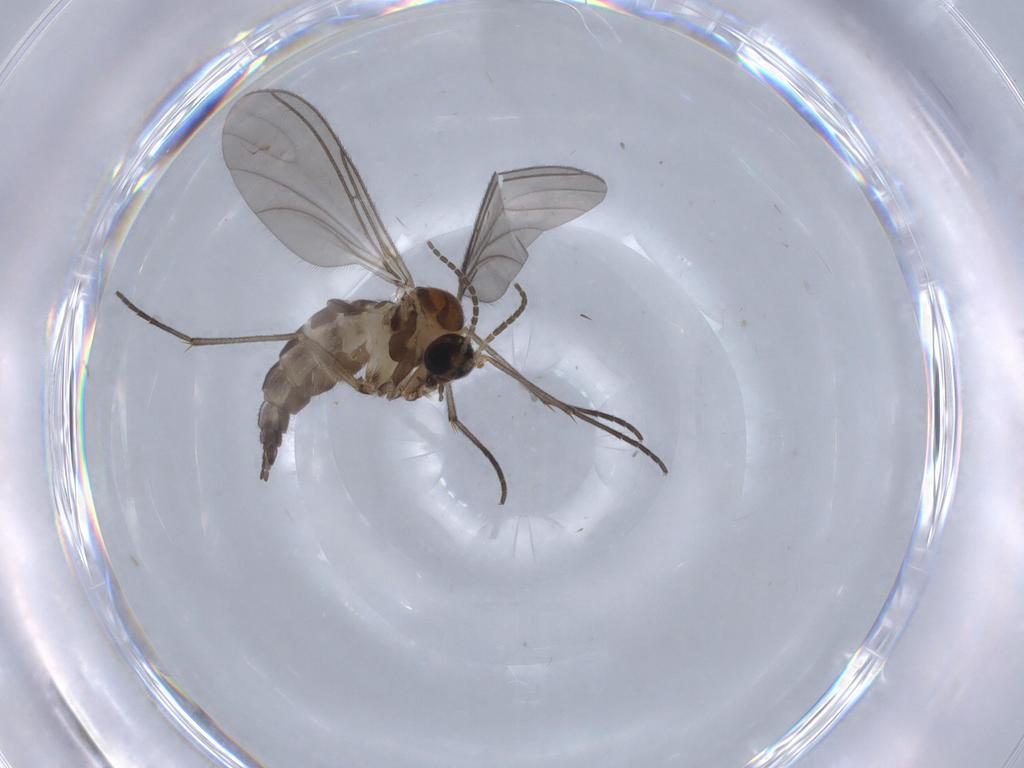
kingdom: Animalia
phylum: Arthropoda
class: Insecta
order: Diptera
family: Sciaridae
